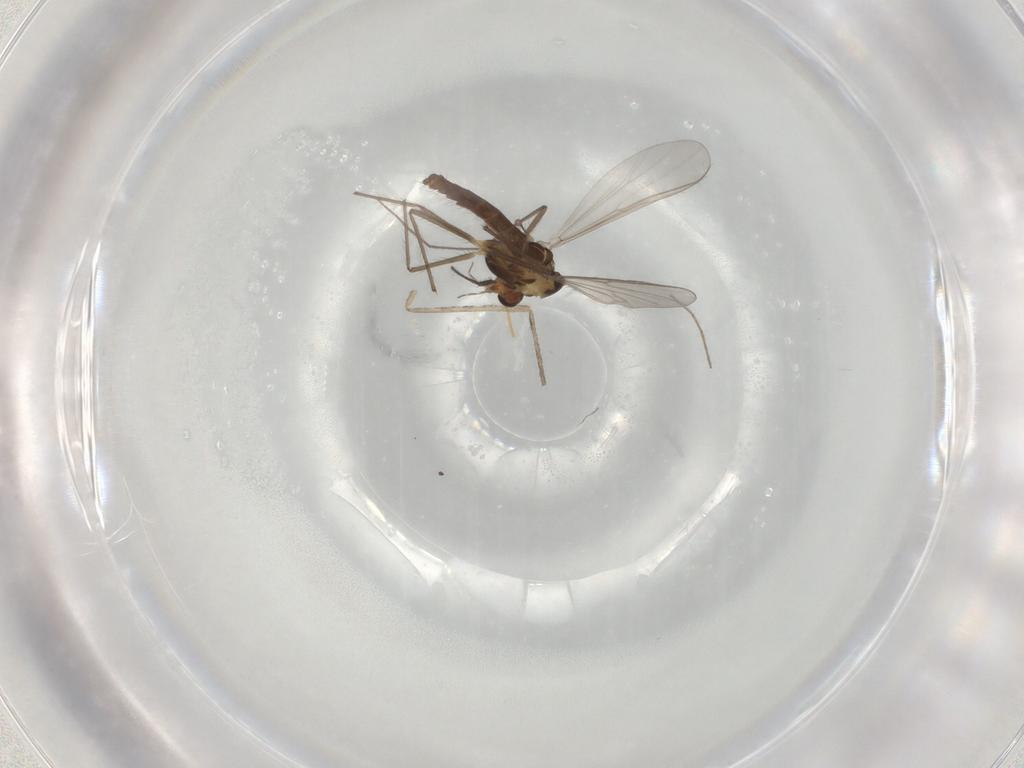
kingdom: Animalia
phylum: Arthropoda
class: Insecta
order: Diptera
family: Chironomidae
